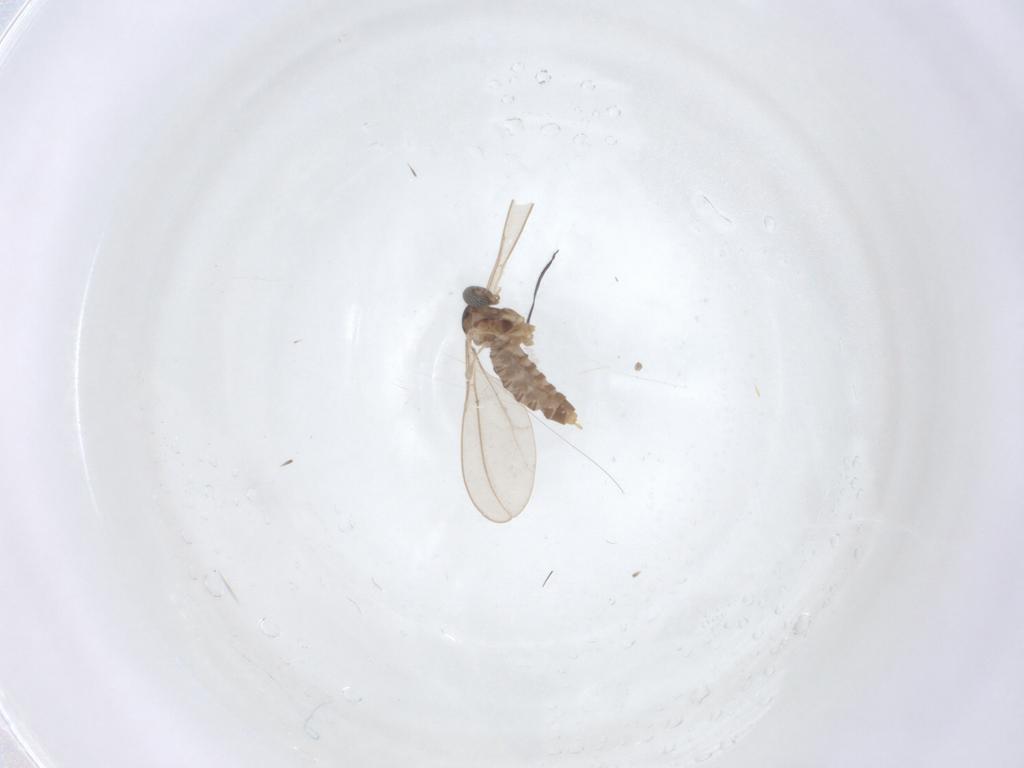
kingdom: Animalia
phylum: Arthropoda
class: Insecta
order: Diptera
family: Cecidomyiidae
